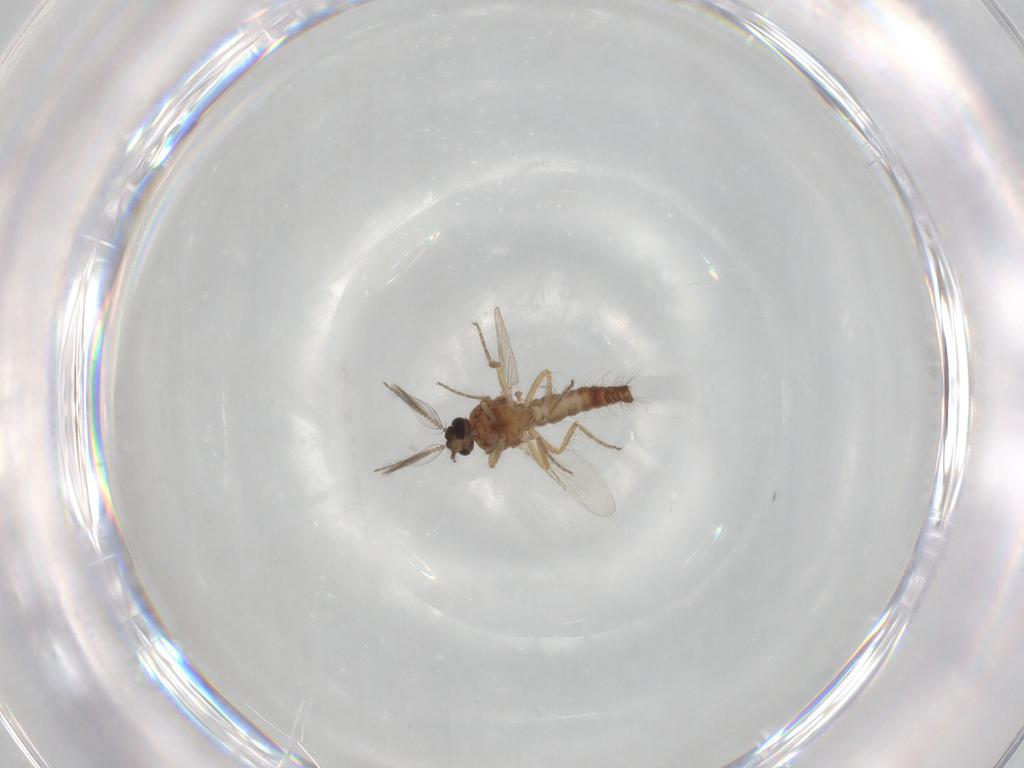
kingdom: Animalia
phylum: Arthropoda
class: Insecta
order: Diptera
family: Ceratopogonidae
